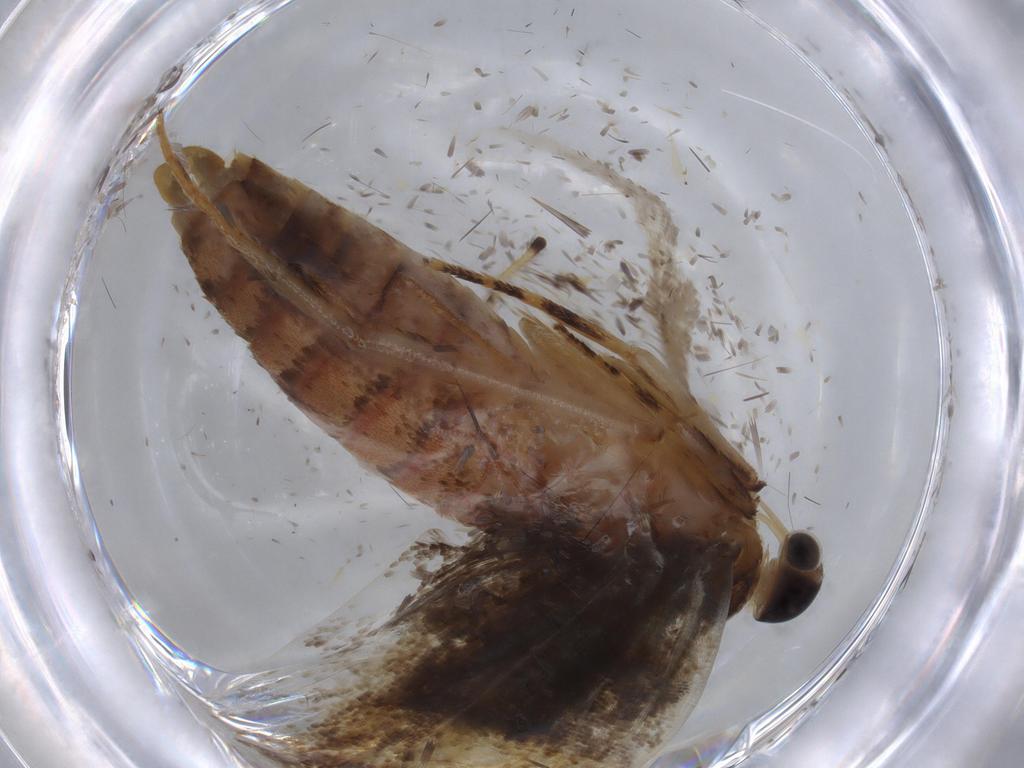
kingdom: Animalia
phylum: Arthropoda
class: Insecta
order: Lepidoptera
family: Oecophoridae
